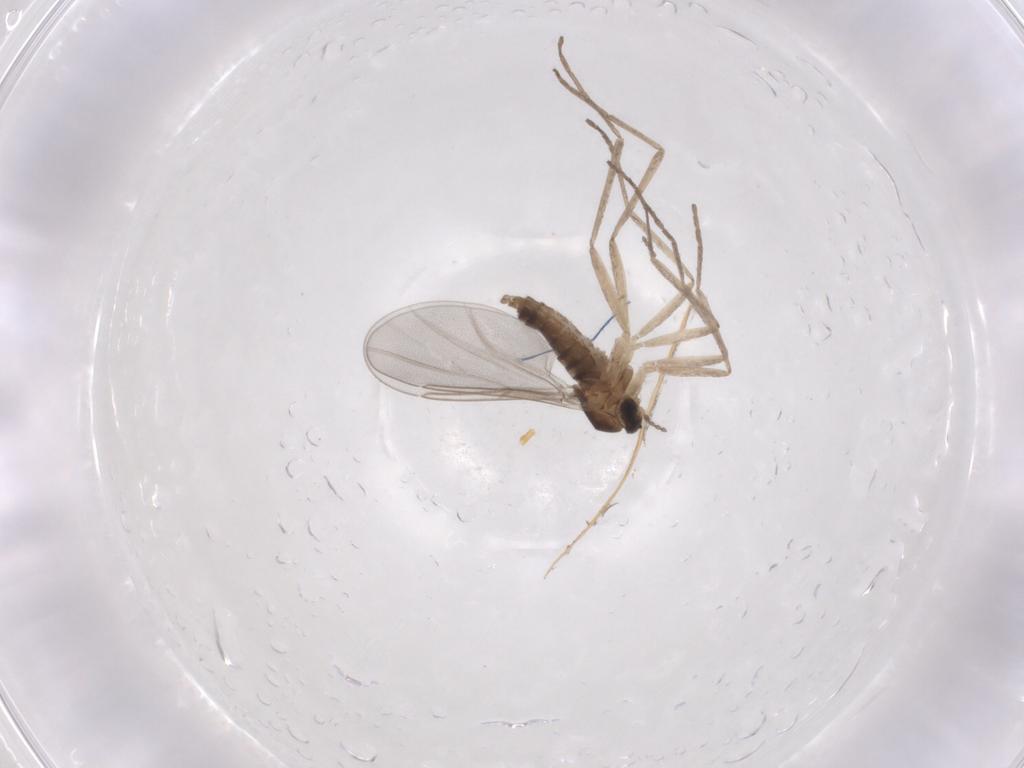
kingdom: Animalia
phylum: Arthropoda
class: Insecta
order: Diptera
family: Cecidomyiidae
